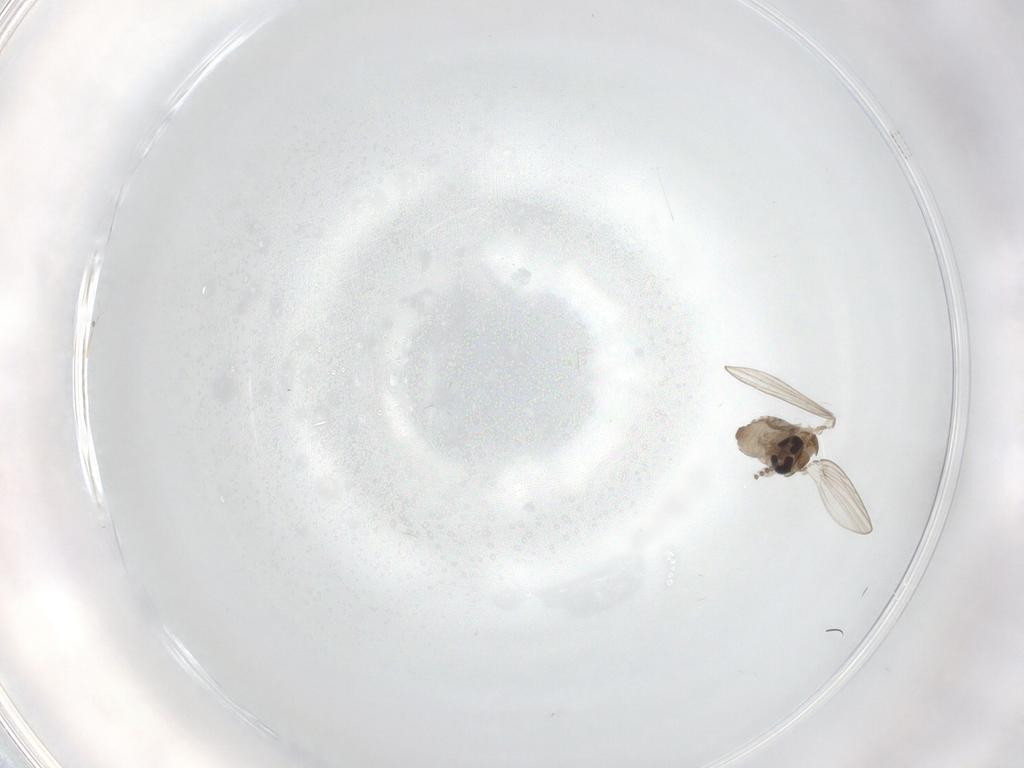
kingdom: Animalia
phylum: Arthropoda
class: Insecta
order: Diptera
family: Psychodidae
